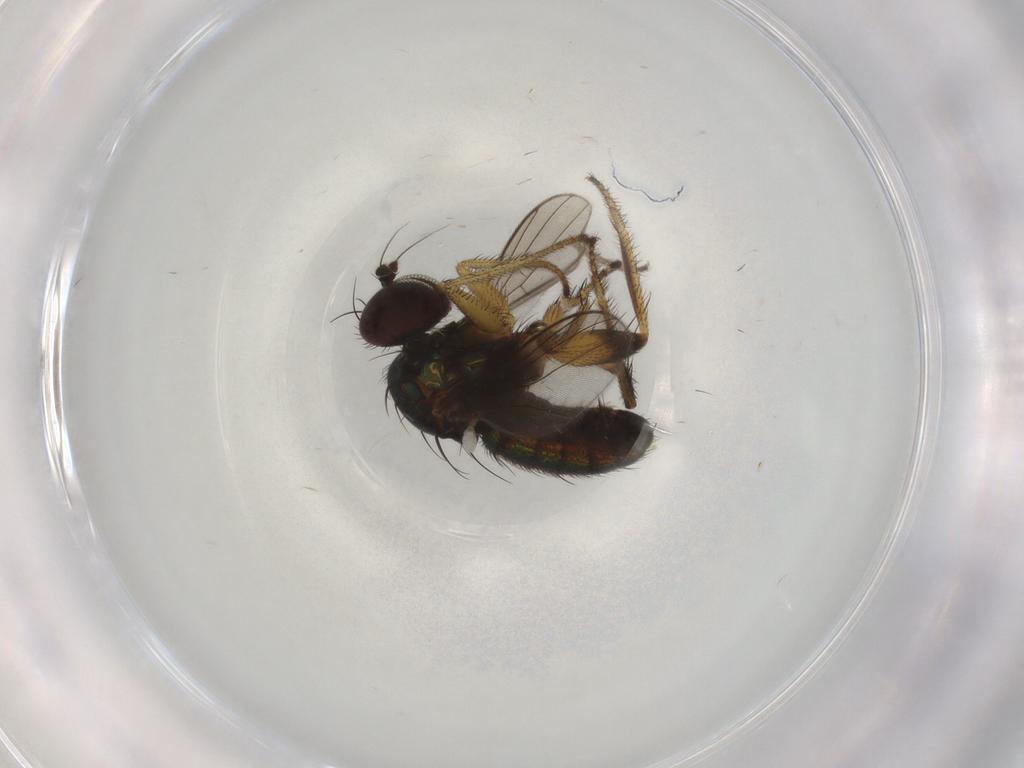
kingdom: Animalia
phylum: Arthropoda
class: Insecta
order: Diptera
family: Dolichopodidae
